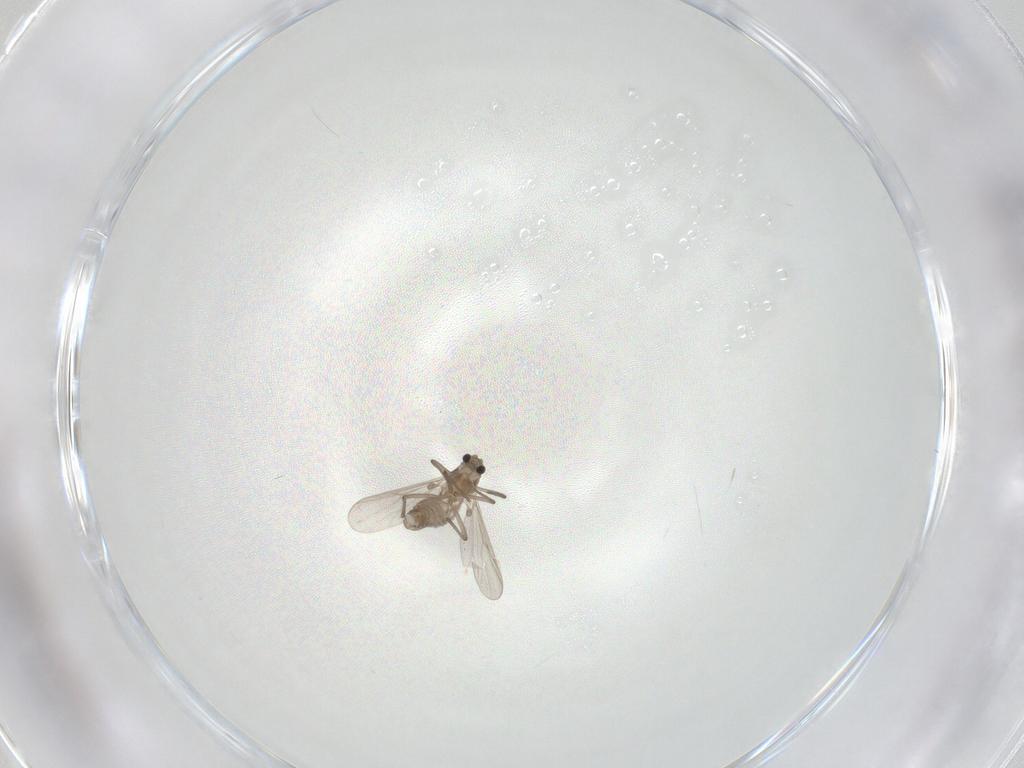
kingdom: Animalia
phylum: Arthropoda
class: Insecta
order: Diptera
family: Chironomidae
